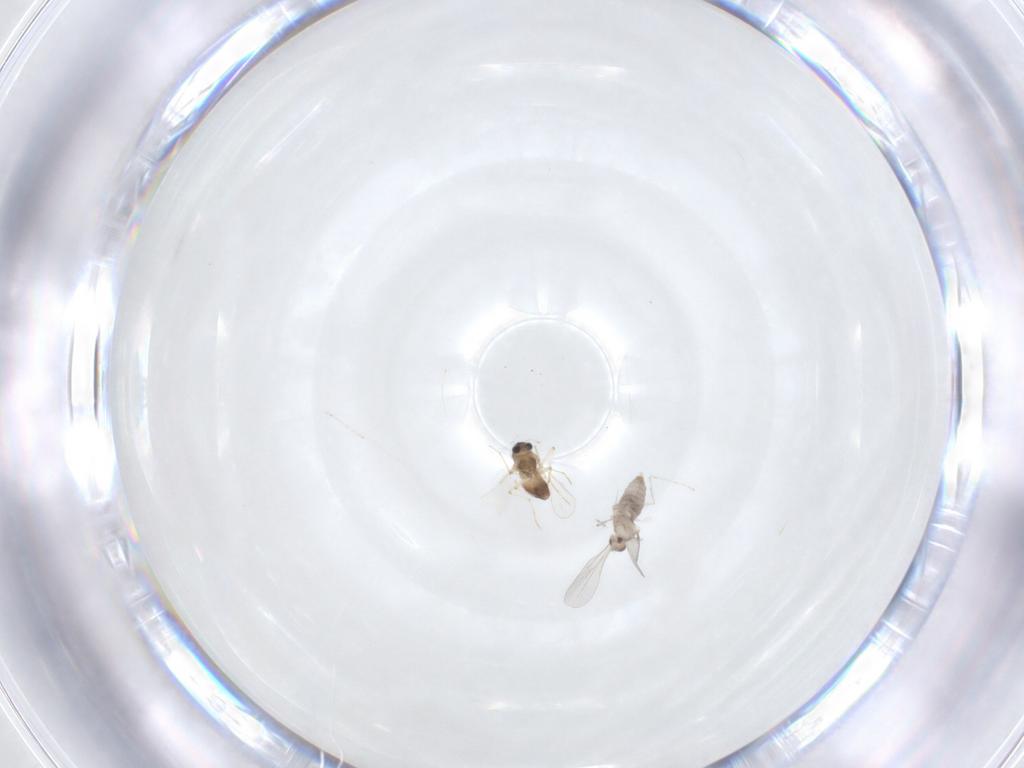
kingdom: Animalia
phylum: Arthropoda
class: Insecta
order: Diptera
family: Chironomidae
